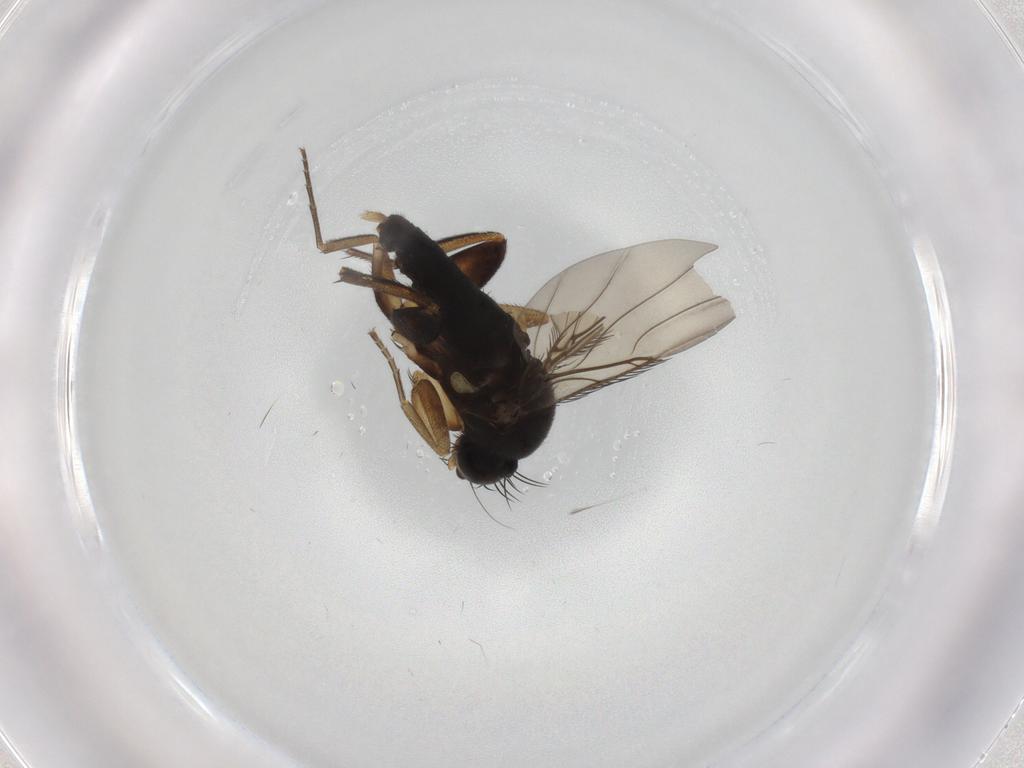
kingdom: Animalia
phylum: Arthropoda
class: Insecta
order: Diptera
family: Phoridae
